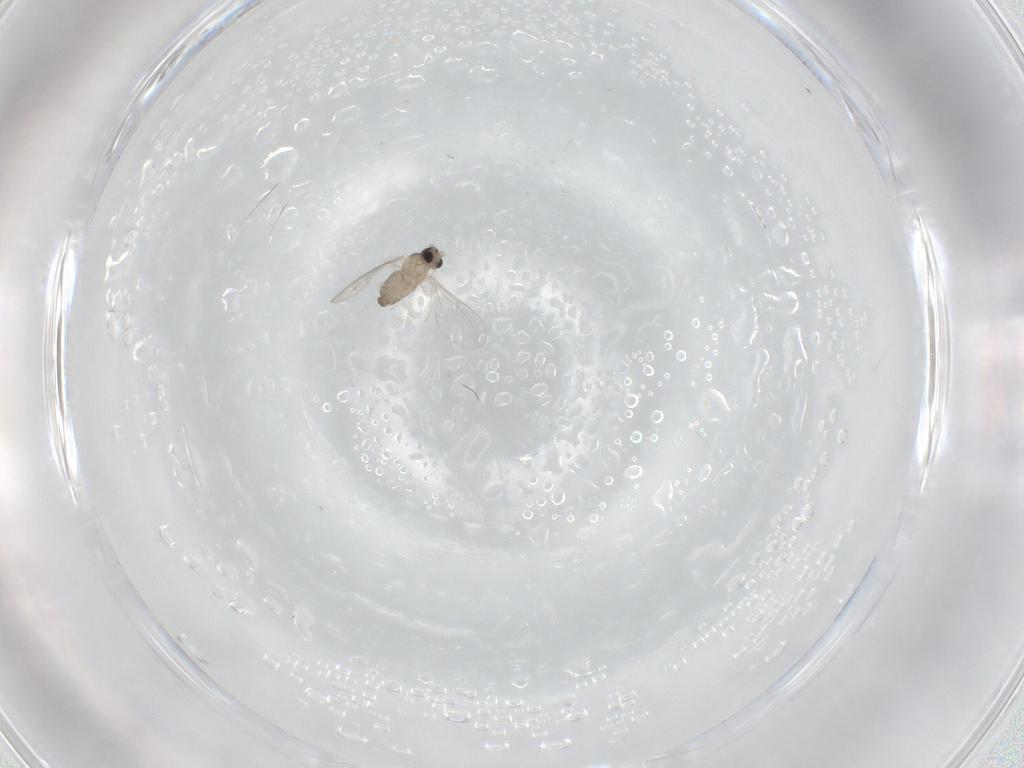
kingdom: Animalia
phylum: Arthropoda
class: Insecta
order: Diptera
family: Cecidomyiidae
